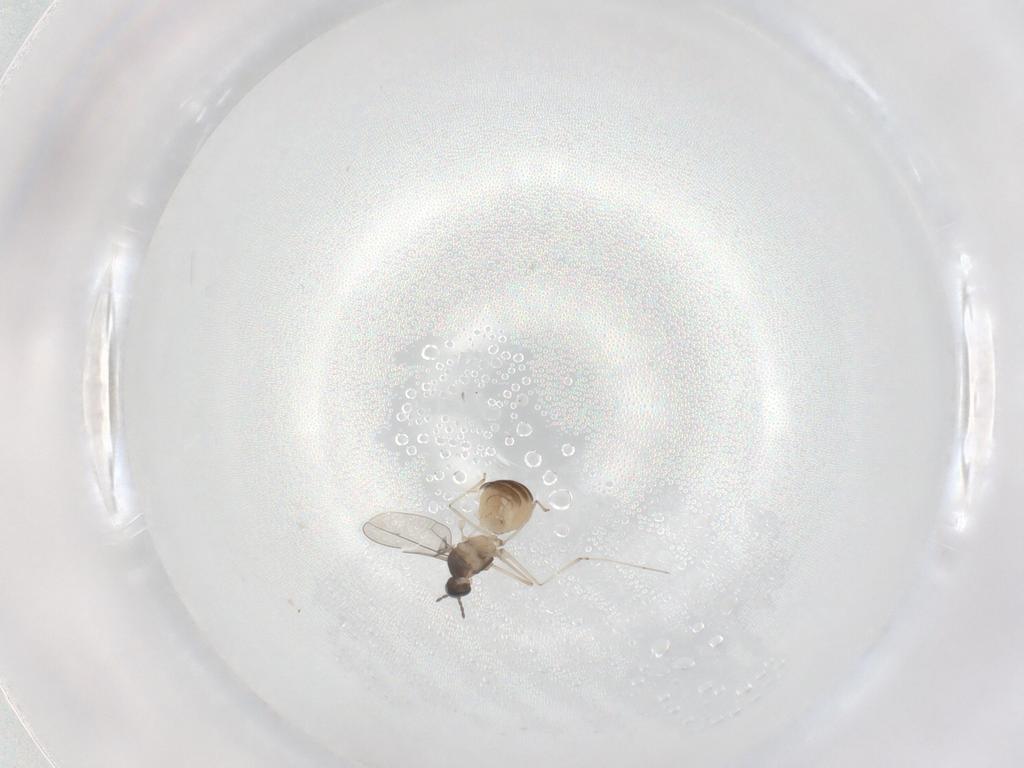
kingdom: Animalia
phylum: Arthropoda
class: Insecta
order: Diptera
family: Cecidomyiidae
